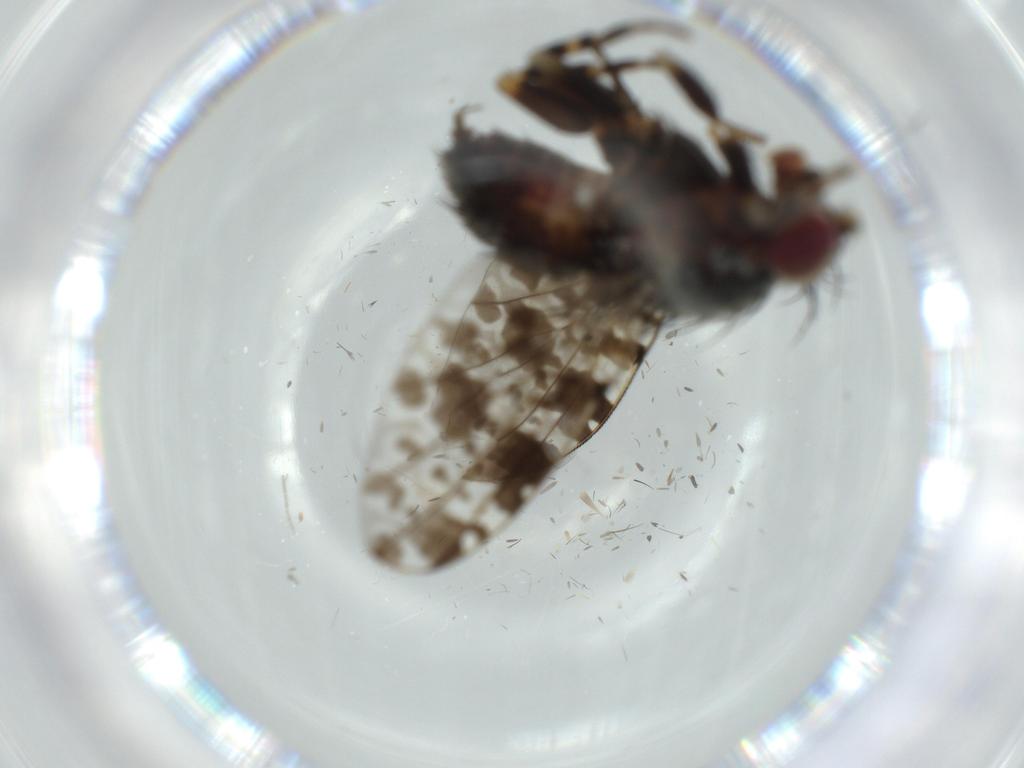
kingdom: Animalia
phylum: Arthropoda
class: Insecta
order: Diptera
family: Odiniidae
